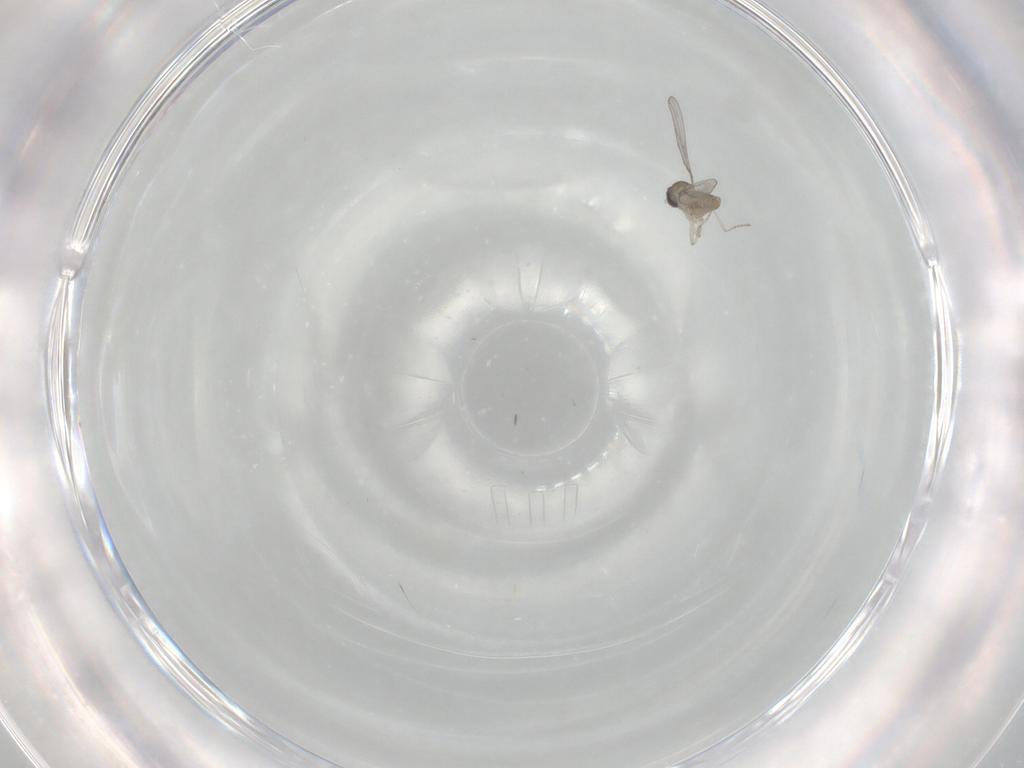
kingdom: Animalia
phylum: Arthropoda
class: Insecta
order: Diptera
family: Cecidomyiidae
